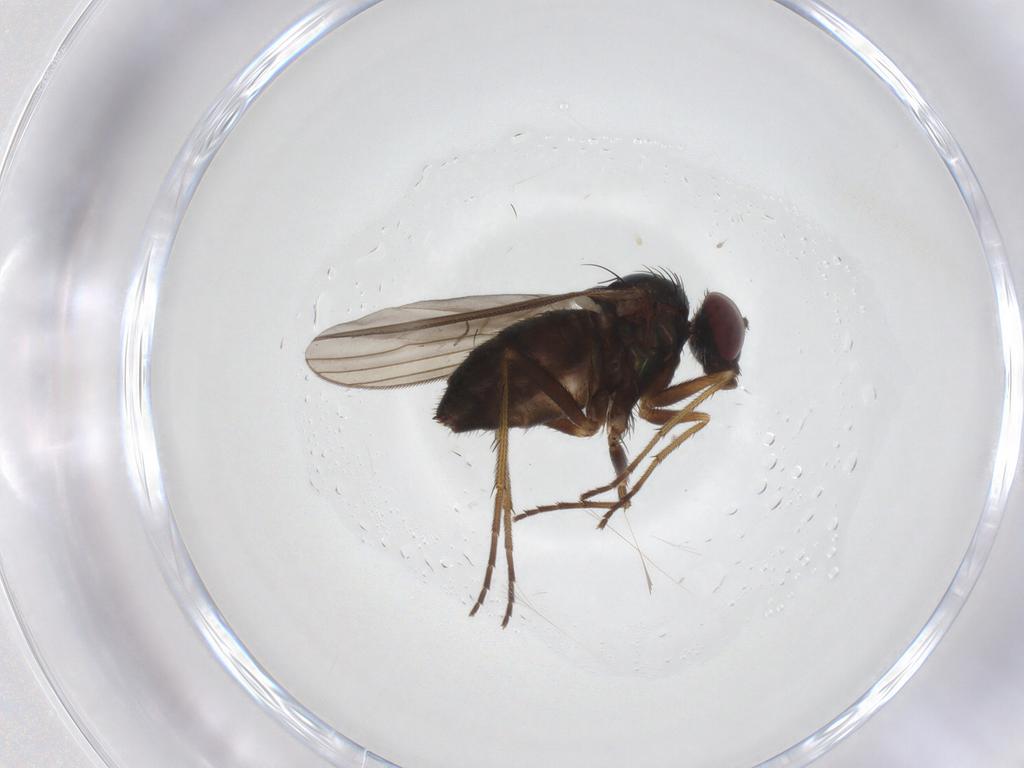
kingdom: Animalia
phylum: Arthropoda
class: Insecta
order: Diptera
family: Dolichopodidae
